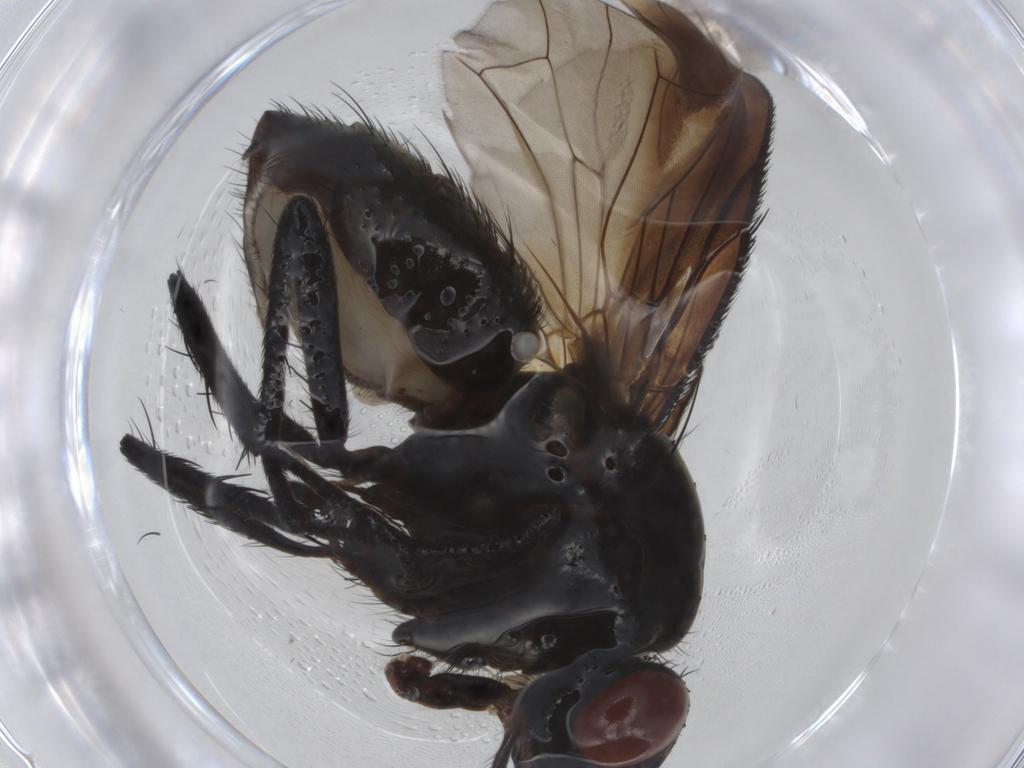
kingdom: Animalia
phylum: Arthropoda
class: Insecta
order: Diptera
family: Anthomyiidae
